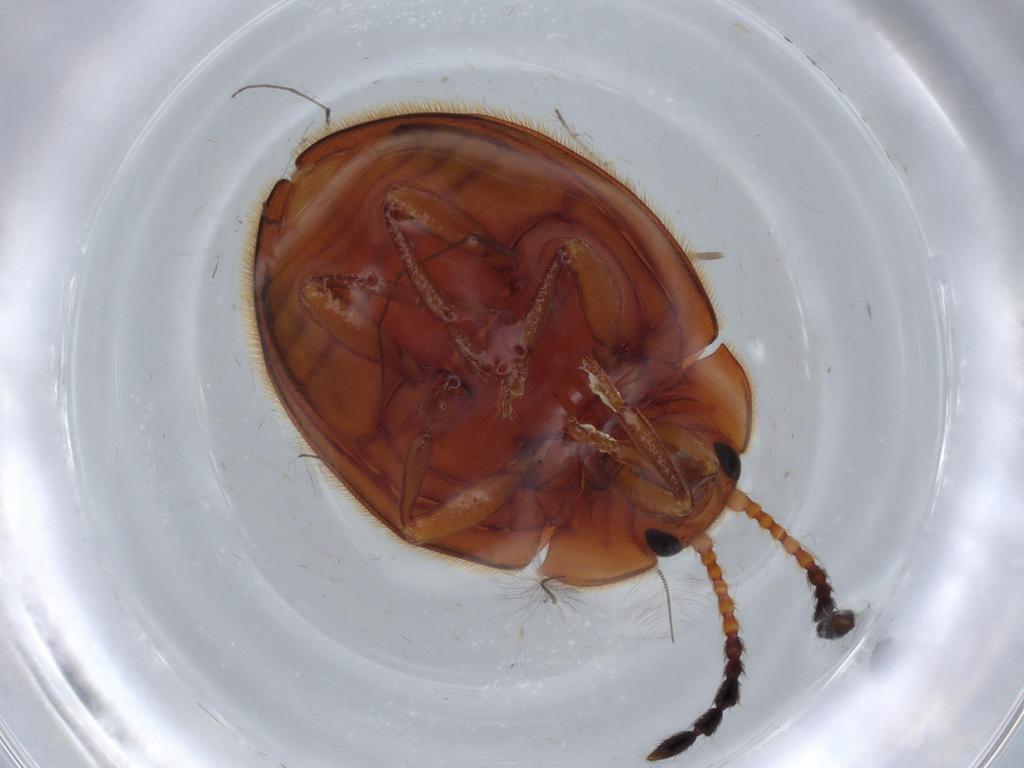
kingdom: Animalia
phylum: Arthropoda
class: Insecta
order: Coleoptera
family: Endomychidae
